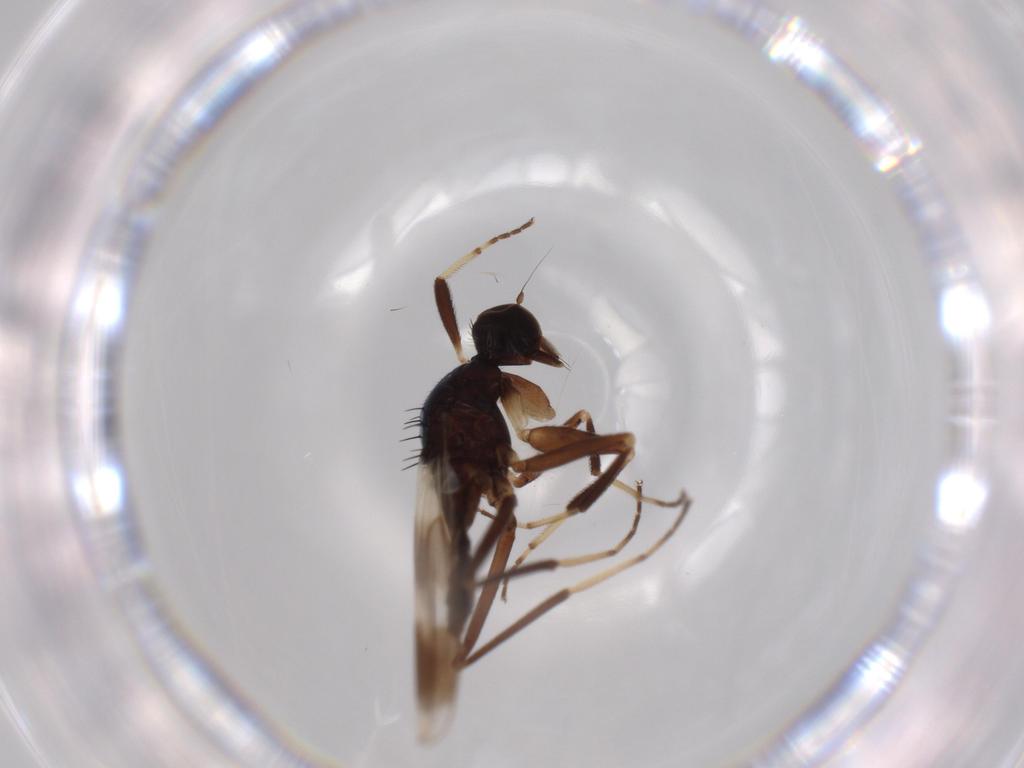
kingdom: Animalia
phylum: Arthropoda
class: Insecta
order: Diptera
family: Hybotidae
